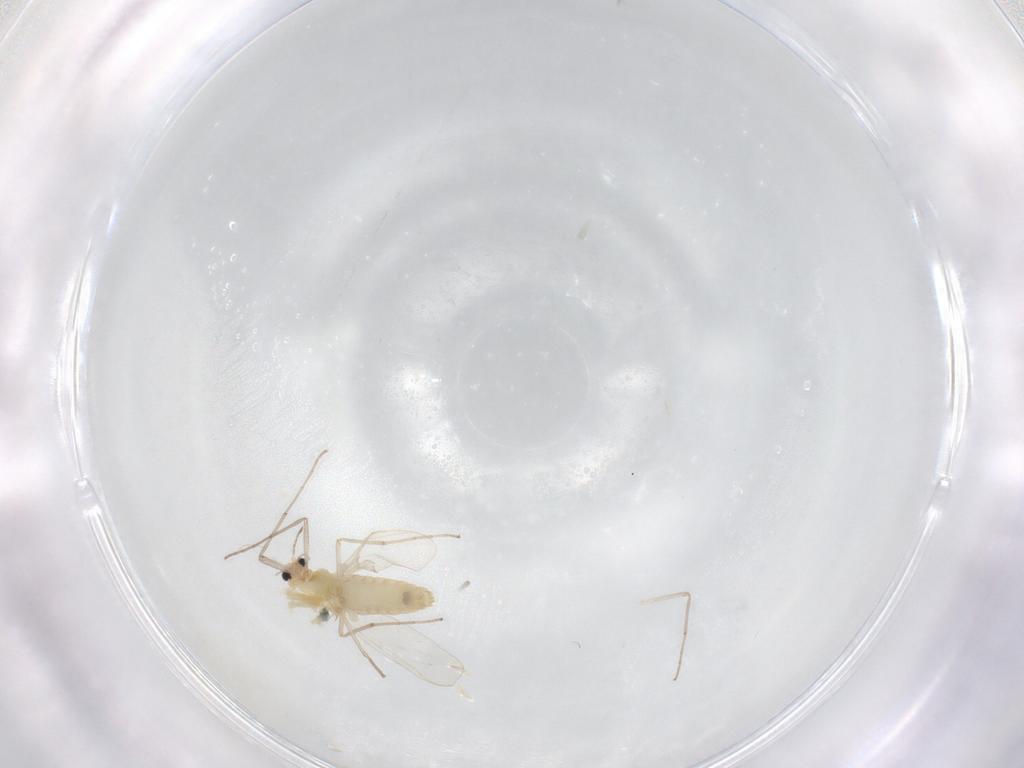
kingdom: Animalia
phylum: Arthropoda
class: Insecta
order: Diptera
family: Chironomidae
